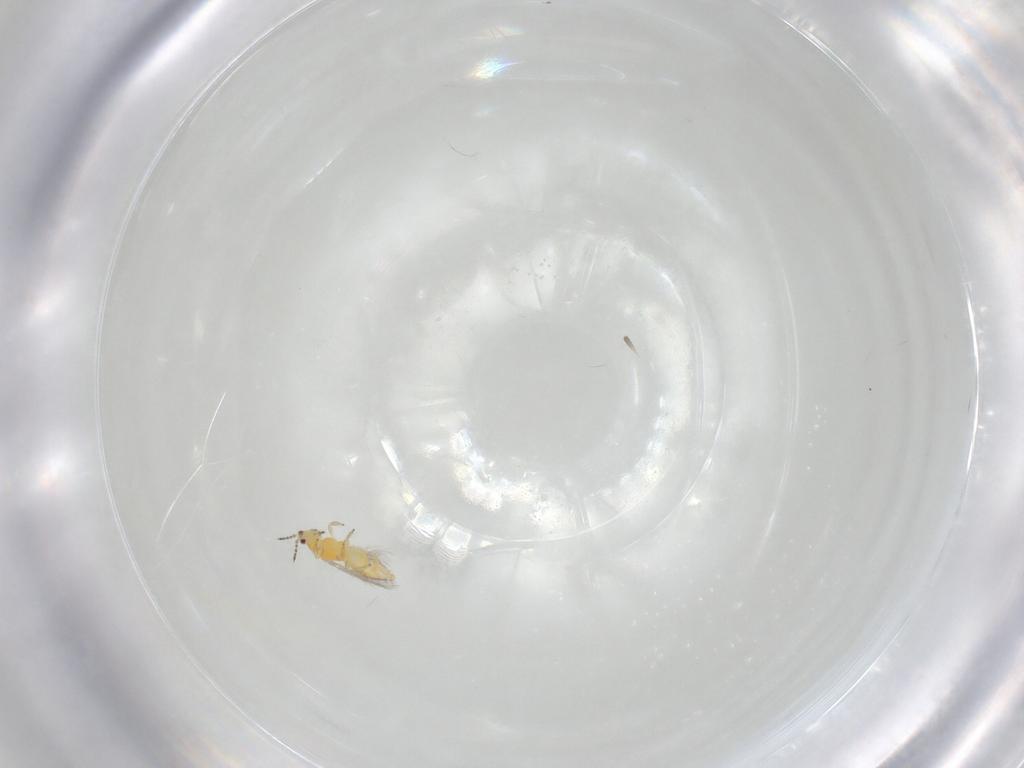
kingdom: Animalia
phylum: Arthropoda
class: Insecta
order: Thysanoptera
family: Thripidae
